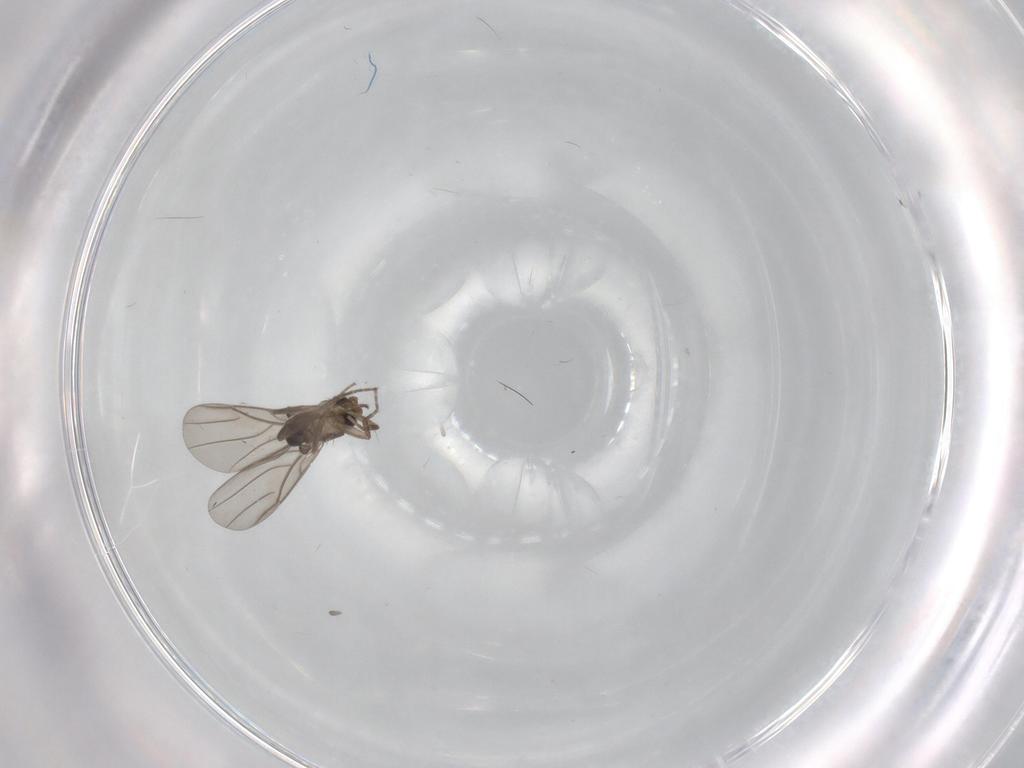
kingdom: Animalia
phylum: Arthropoda
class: Insecta
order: Diptera
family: Phoridae
